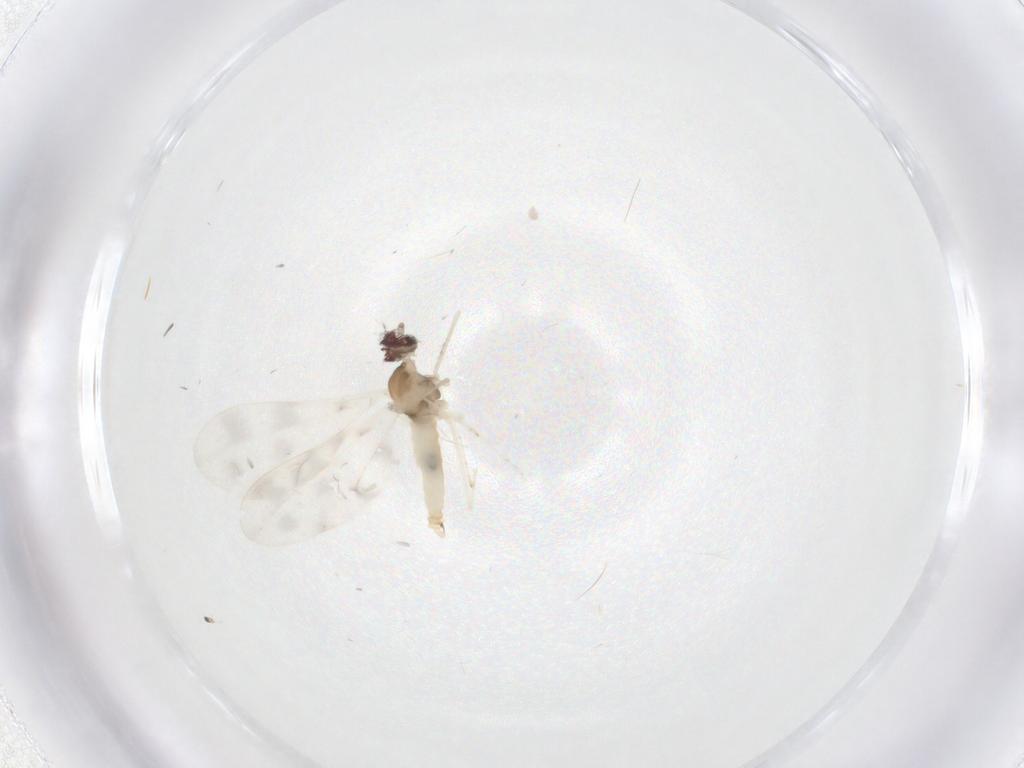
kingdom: Animalia
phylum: Arthropoda
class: Insecta
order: Diptera
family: Cecidomyiidae
